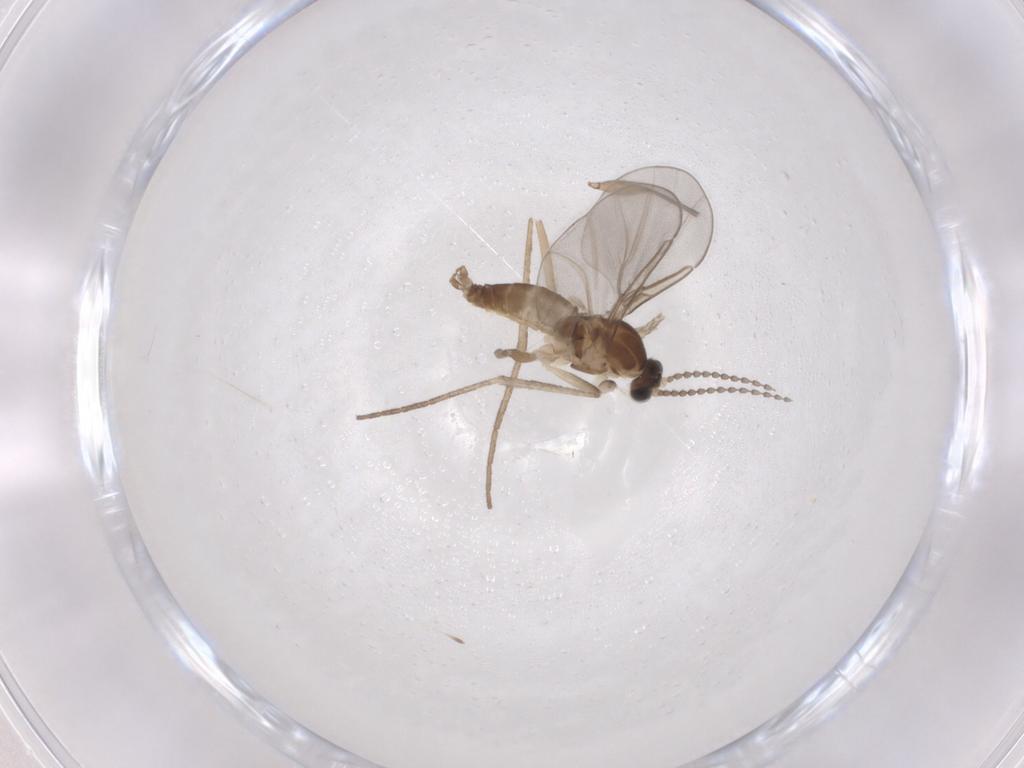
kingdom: Animalia
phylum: Arthropoda
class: Insecta
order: Diptera
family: Cecidomyiidae
